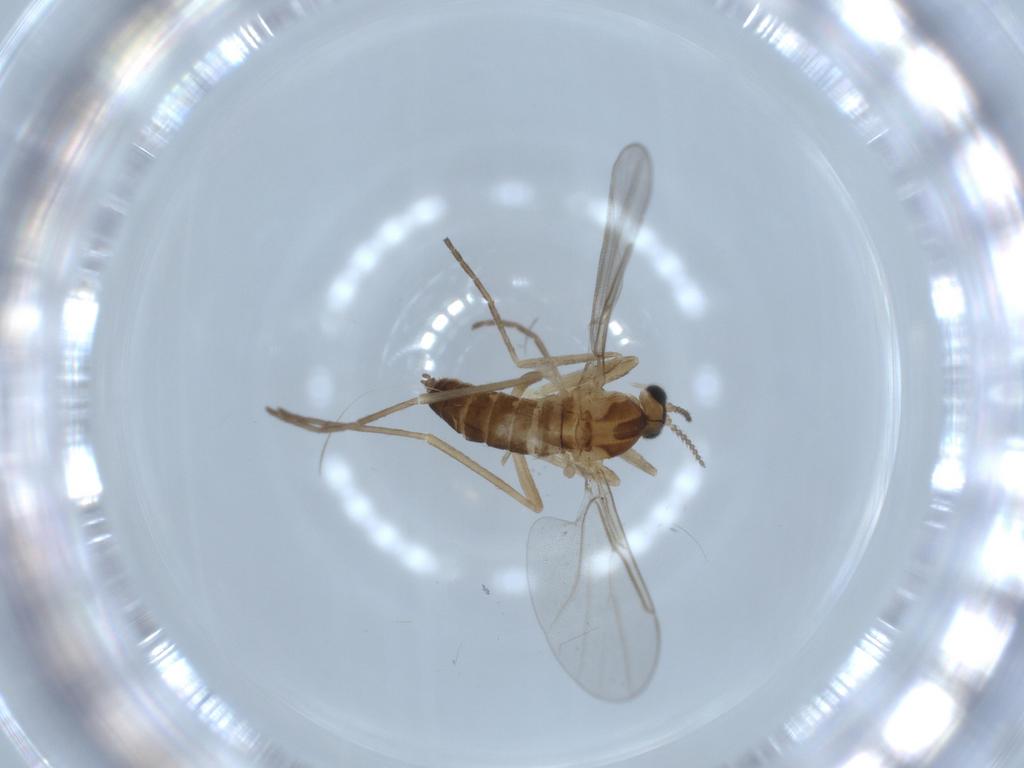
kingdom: Animalia
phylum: Arthropoda
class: Insecta
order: Diptera
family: Cecidomyiidae
